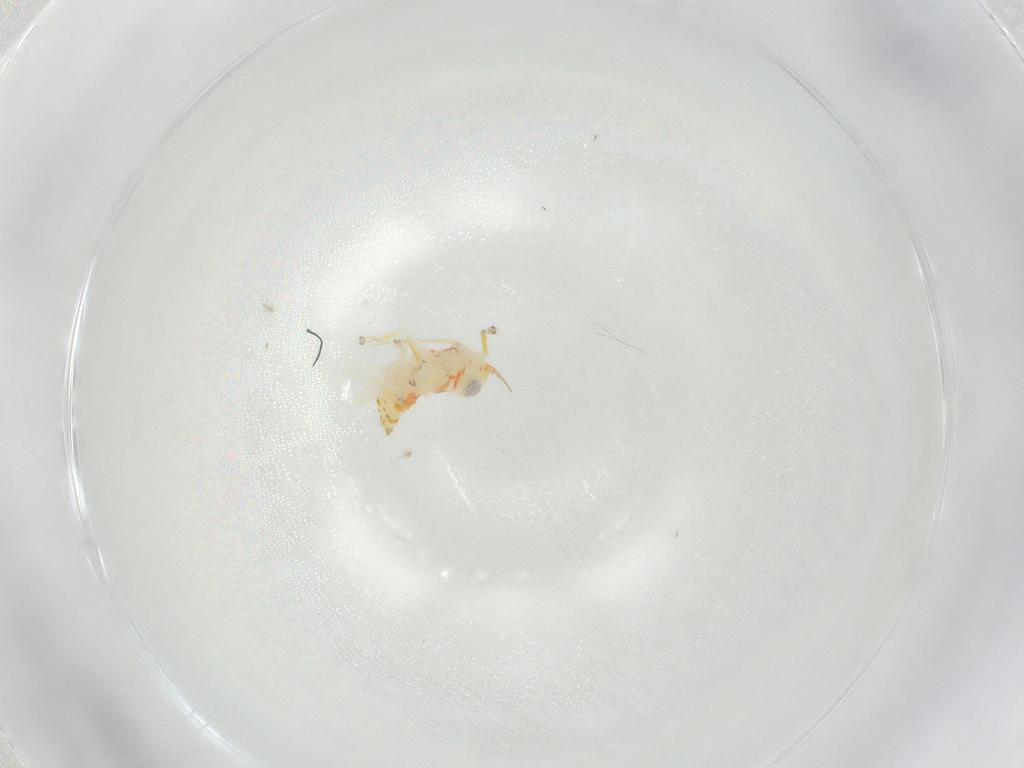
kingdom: Animalia
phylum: Arthropoda
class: Insecta
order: Hemiptera
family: Cicadellidae
